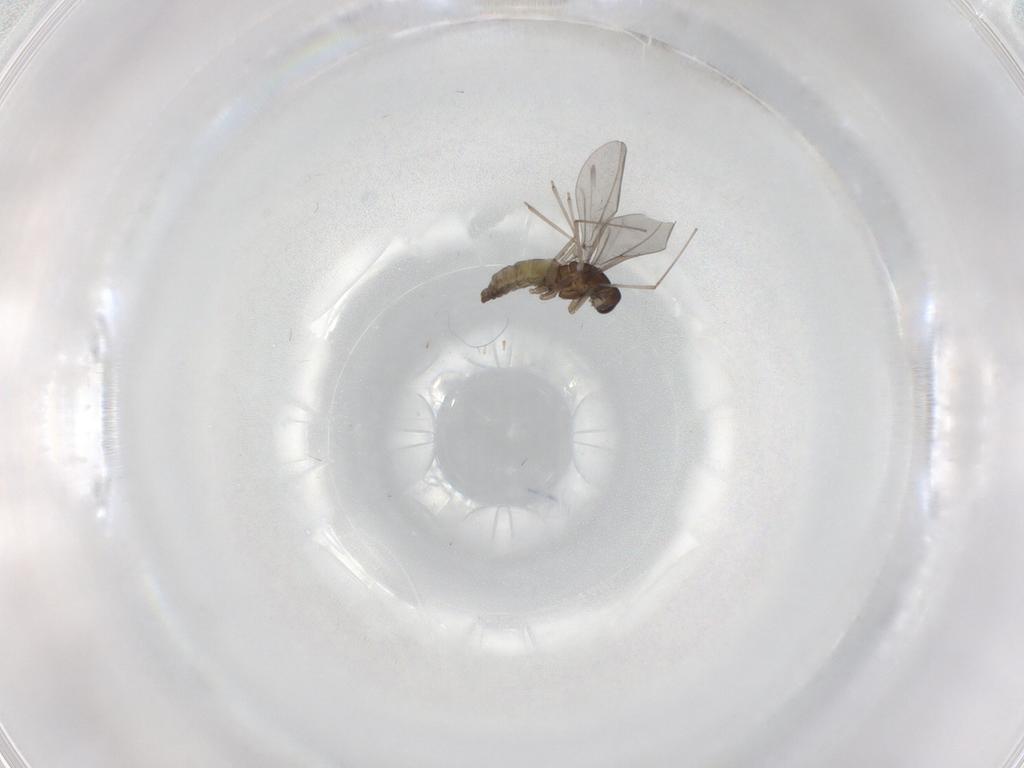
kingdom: Animalia
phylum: Arthropoda
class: Insecta
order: Diptera
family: Cecidomyiidae
